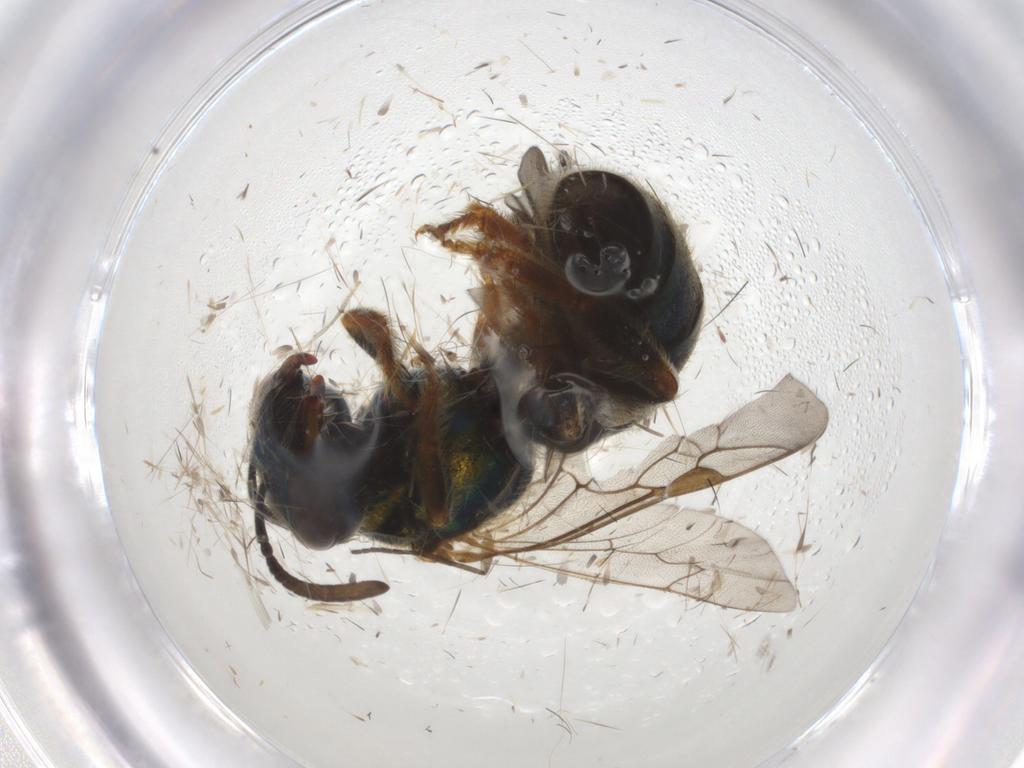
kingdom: Animalia
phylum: Arthropoda
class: Insecta
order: Hymenoptera
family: Halictidae
